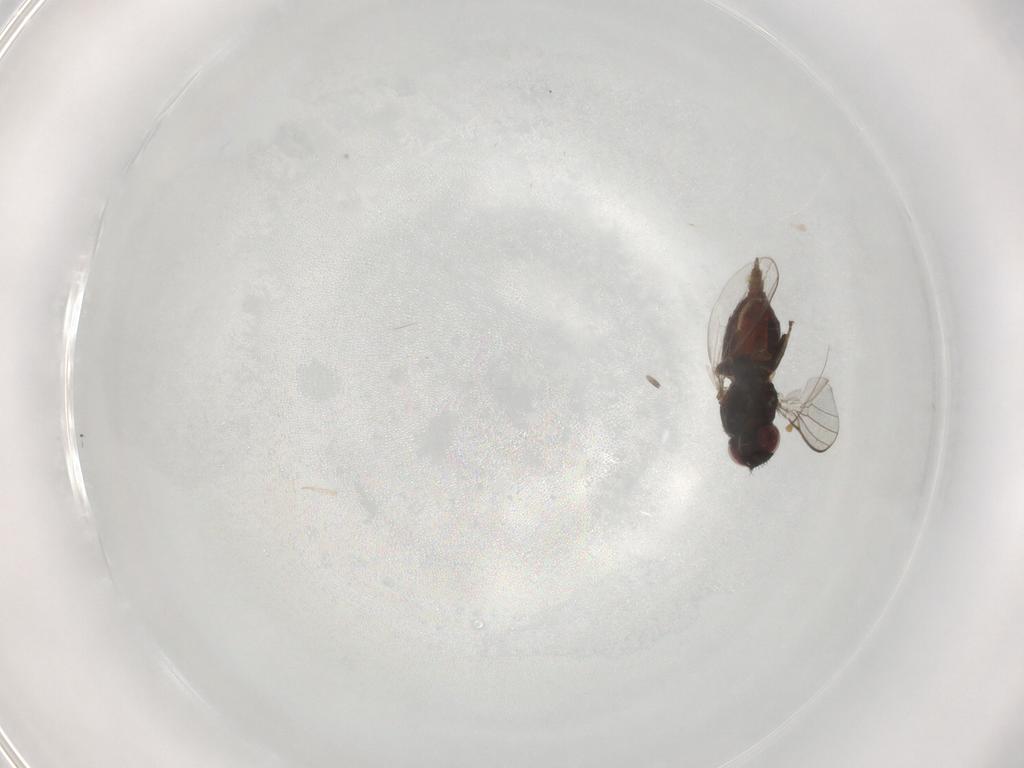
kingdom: Animalia
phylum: Arthropoda
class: Insecta
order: Diptera
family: Milichiidae
